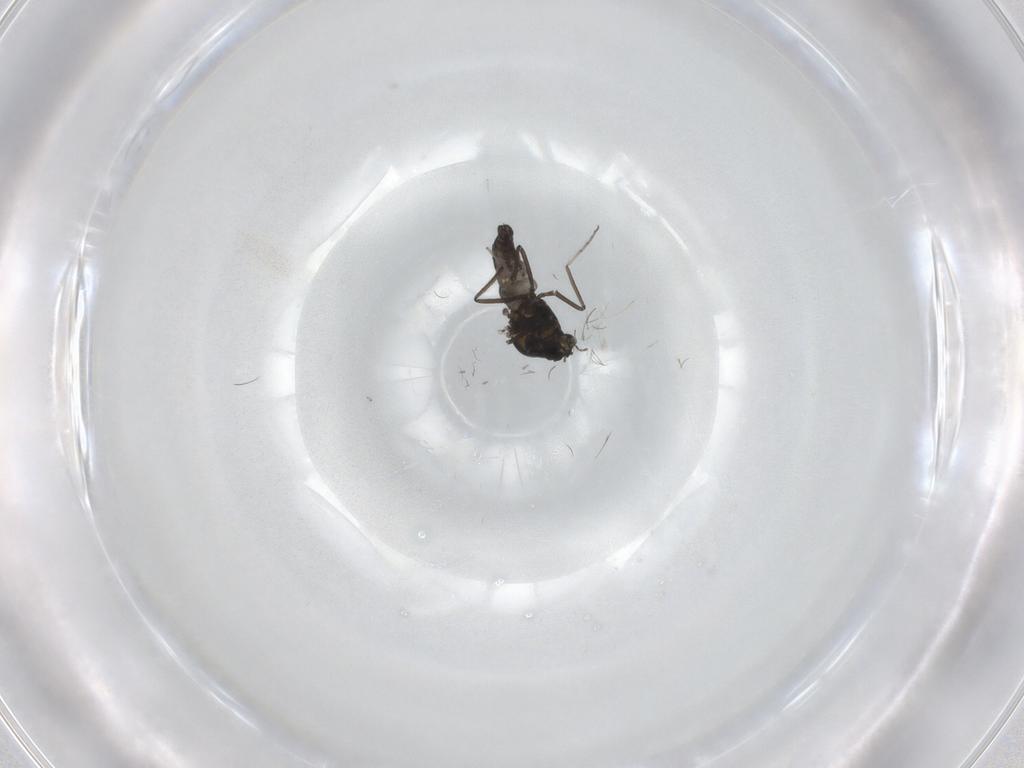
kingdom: Animalia
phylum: Arthropoda
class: Insecta
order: Diptera
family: Ceratopogonidae
